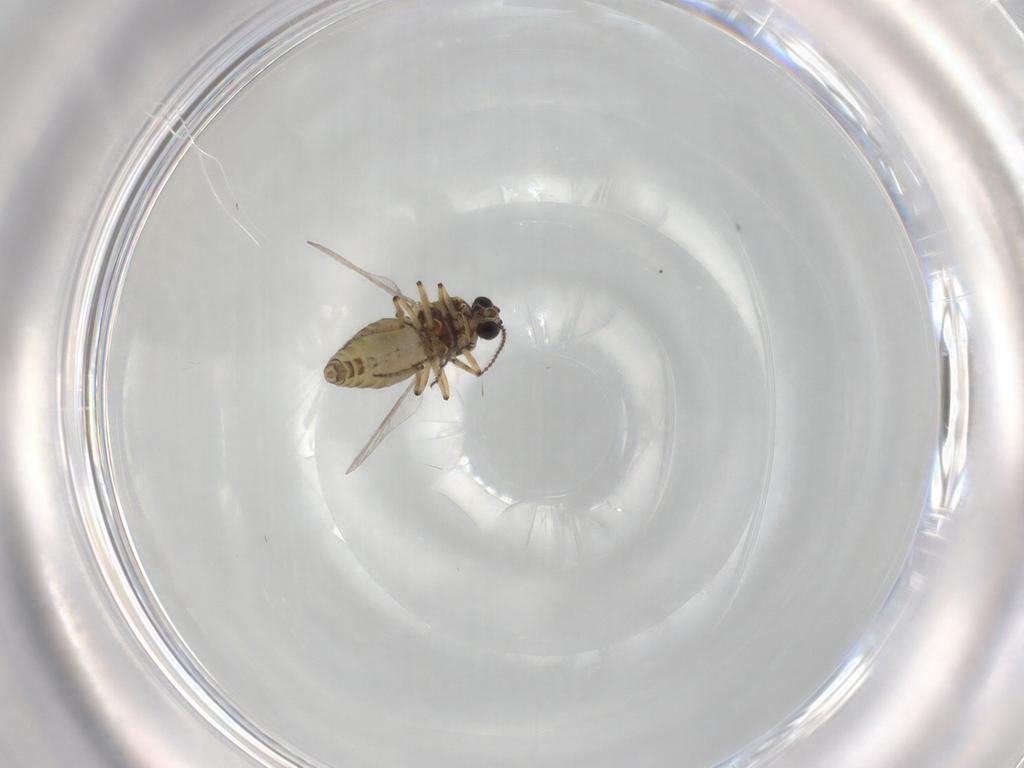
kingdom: Animalia
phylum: Arthropoda
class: Insecta
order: Diptera
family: Ceratopogonidae
